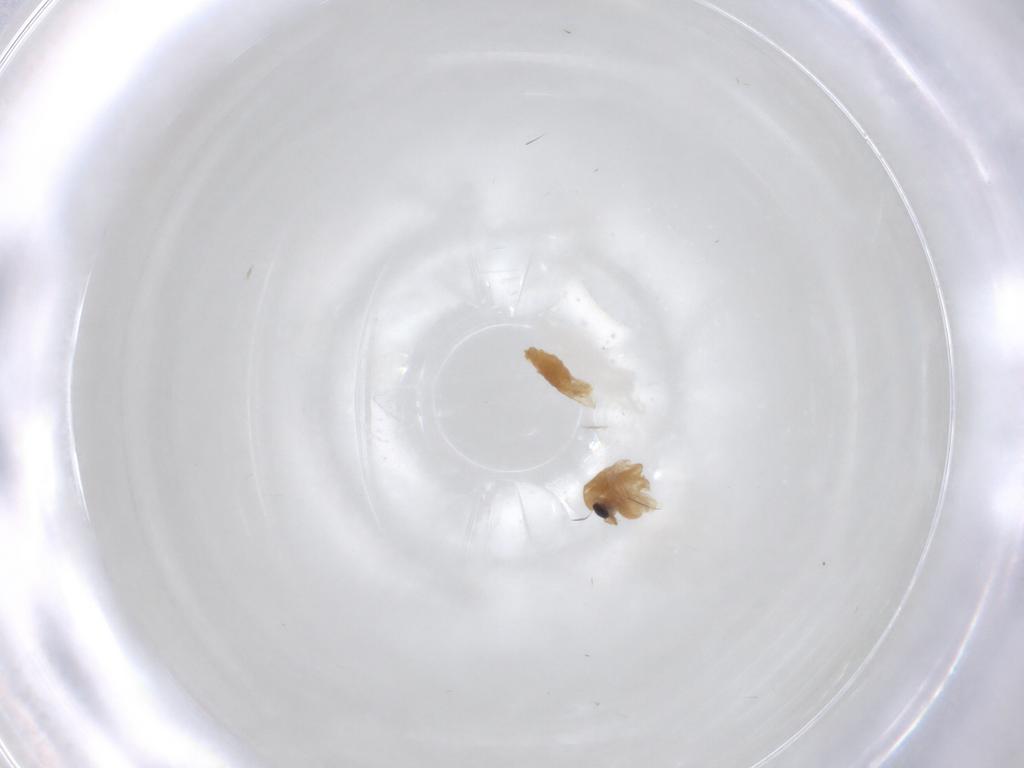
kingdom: Animalia
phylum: Arthropoda
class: Insecta
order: Diptera
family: Chironomidae
